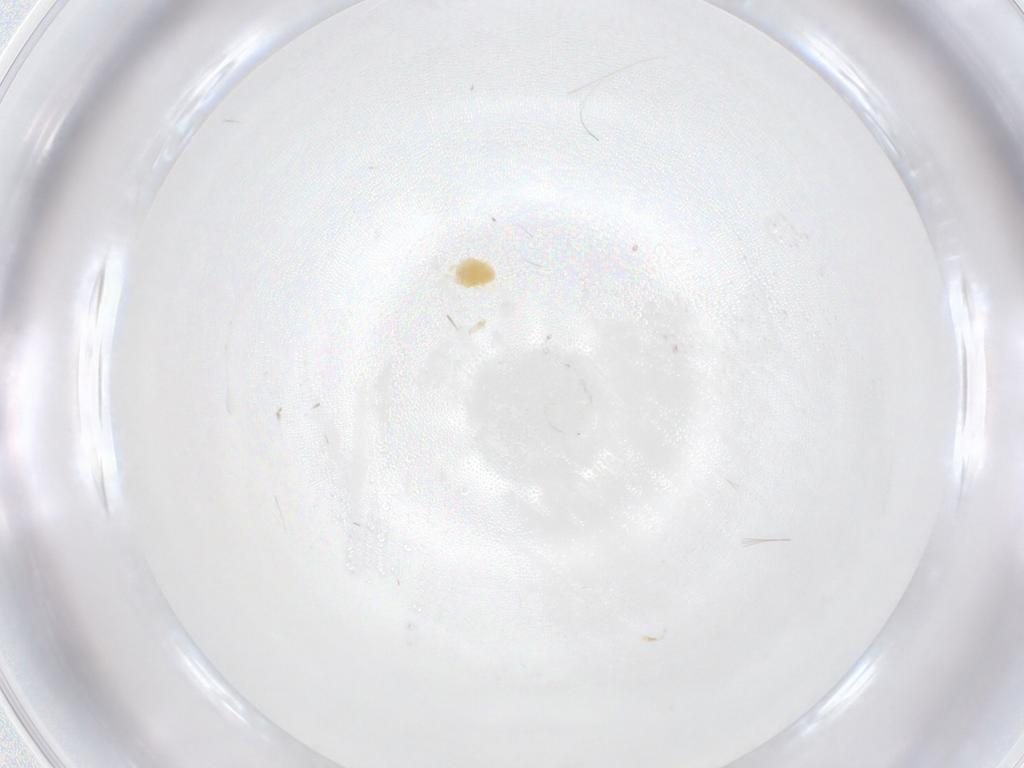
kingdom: Animalia
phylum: Arthropoda
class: Arachnida
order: Trombidiformes
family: Tetranychidae
